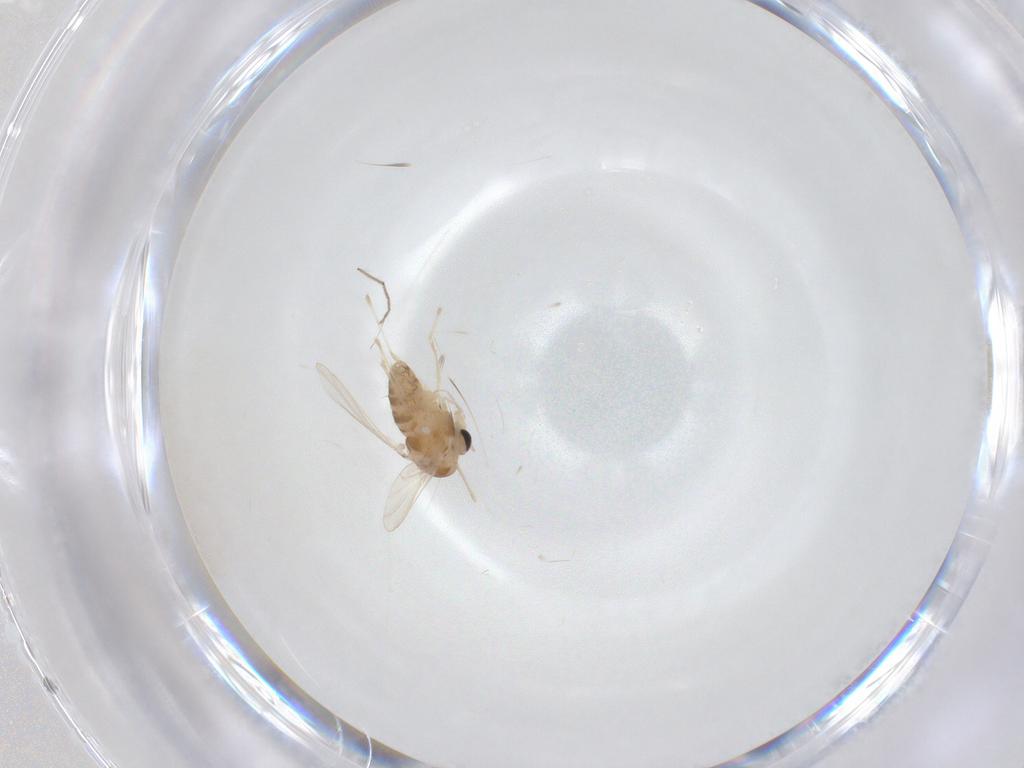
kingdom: Animalia
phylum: Arthropoda
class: Insecta
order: Diptera
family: Chironomidae
